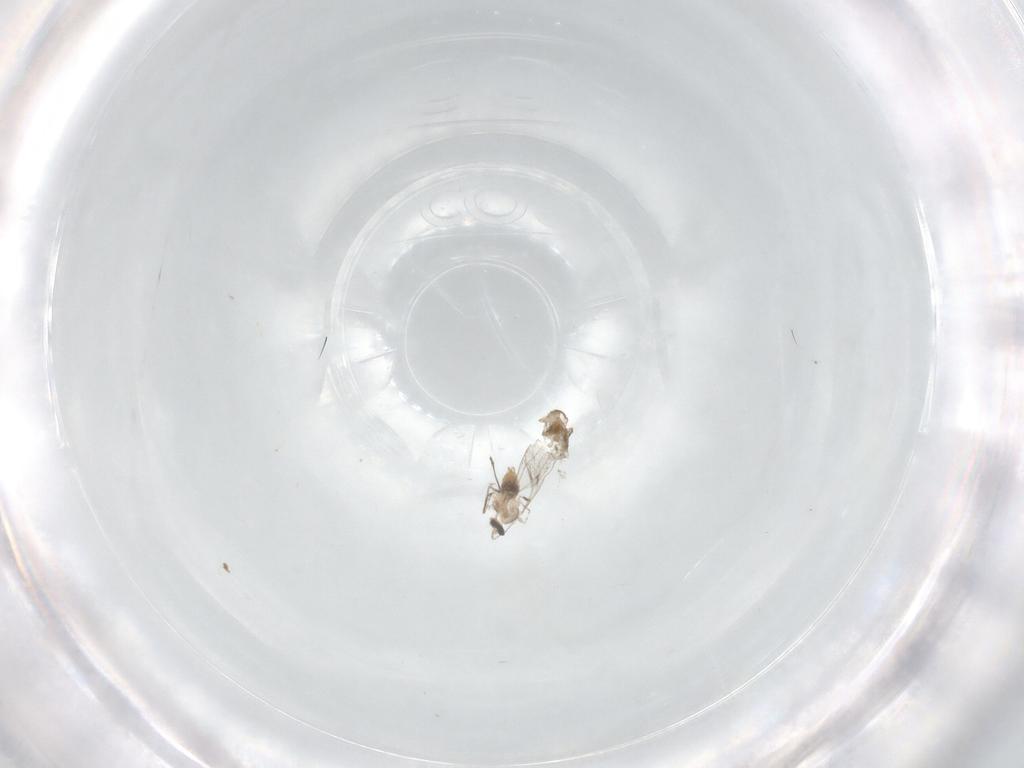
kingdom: Animalia
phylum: Arthropoda
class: Insecta
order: Diptera
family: Cecidomyiidae
